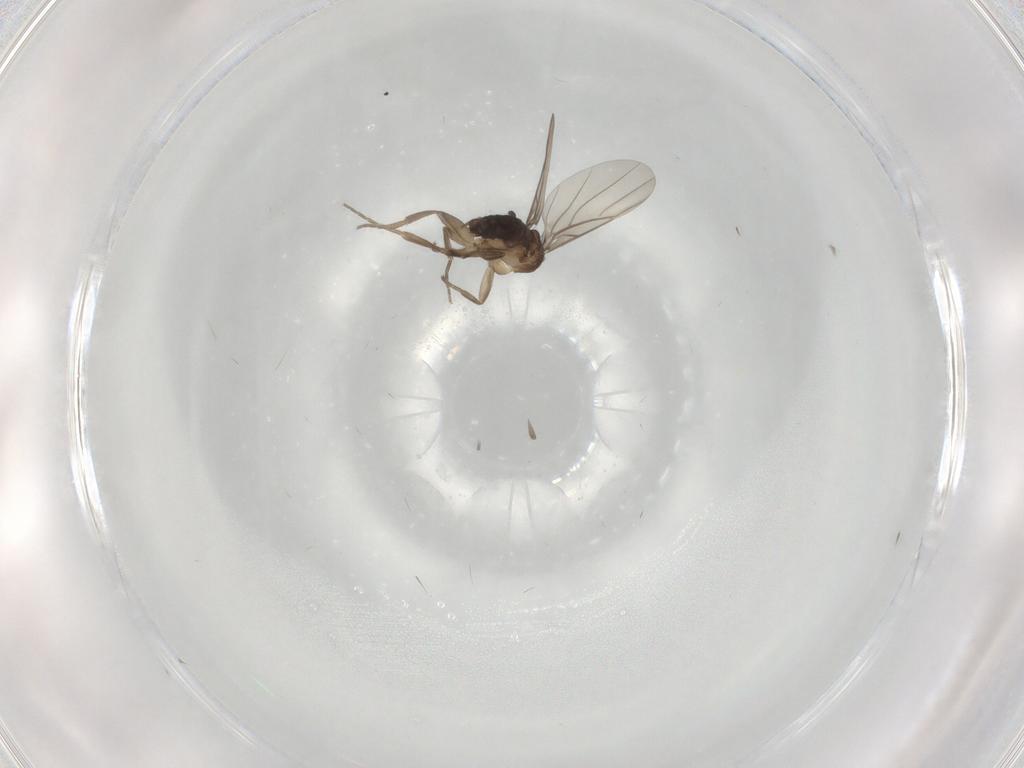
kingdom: Animalia
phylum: Arthropoda
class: Insecta
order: Diptera
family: Phoridae
